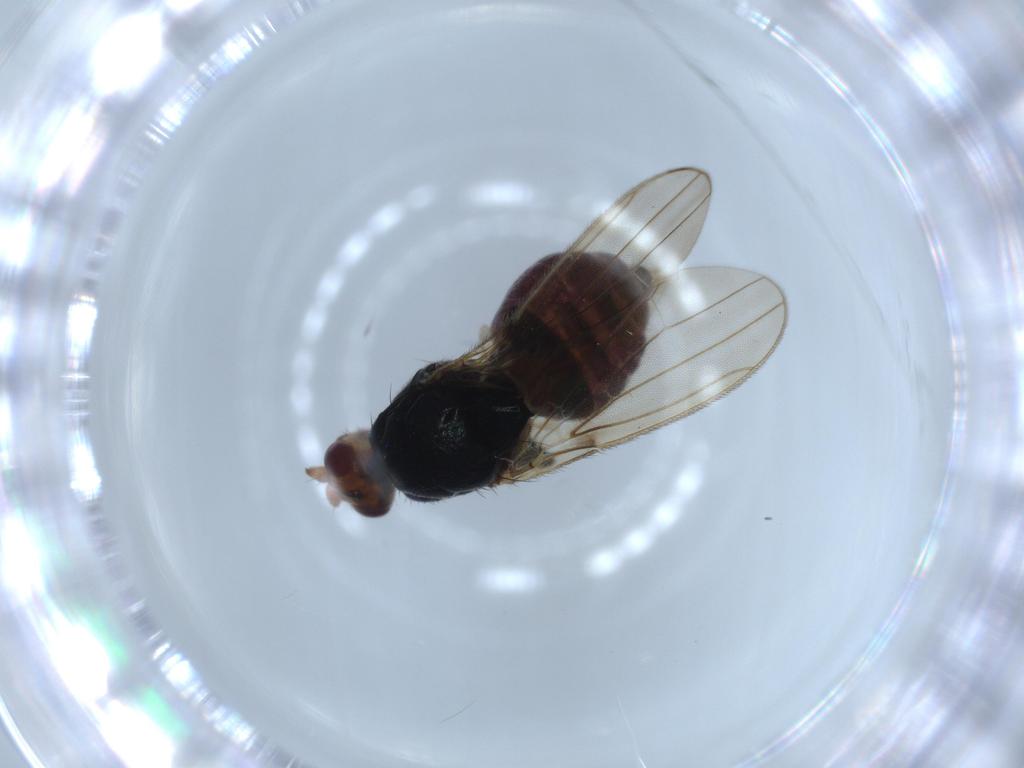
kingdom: Animalia
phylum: Arthropoda
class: Insecta
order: Diptera
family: Sphaeroceridae
